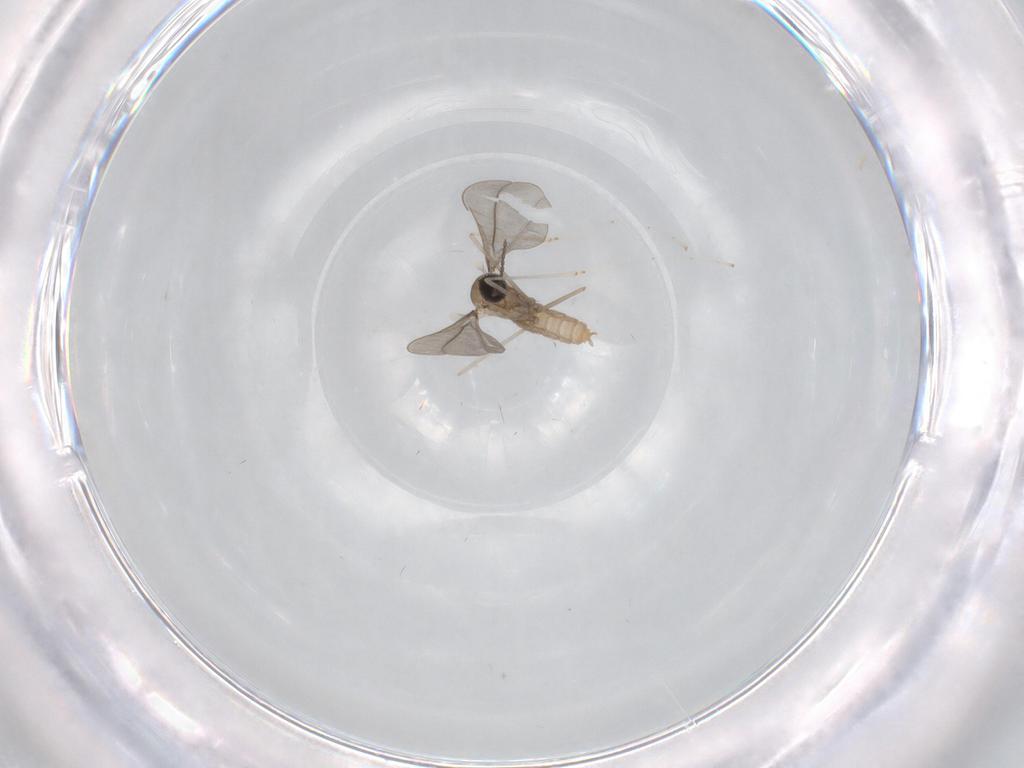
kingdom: Animalia
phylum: Arthropoda
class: Insecta
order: Diptera
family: Cecidomyiidae
